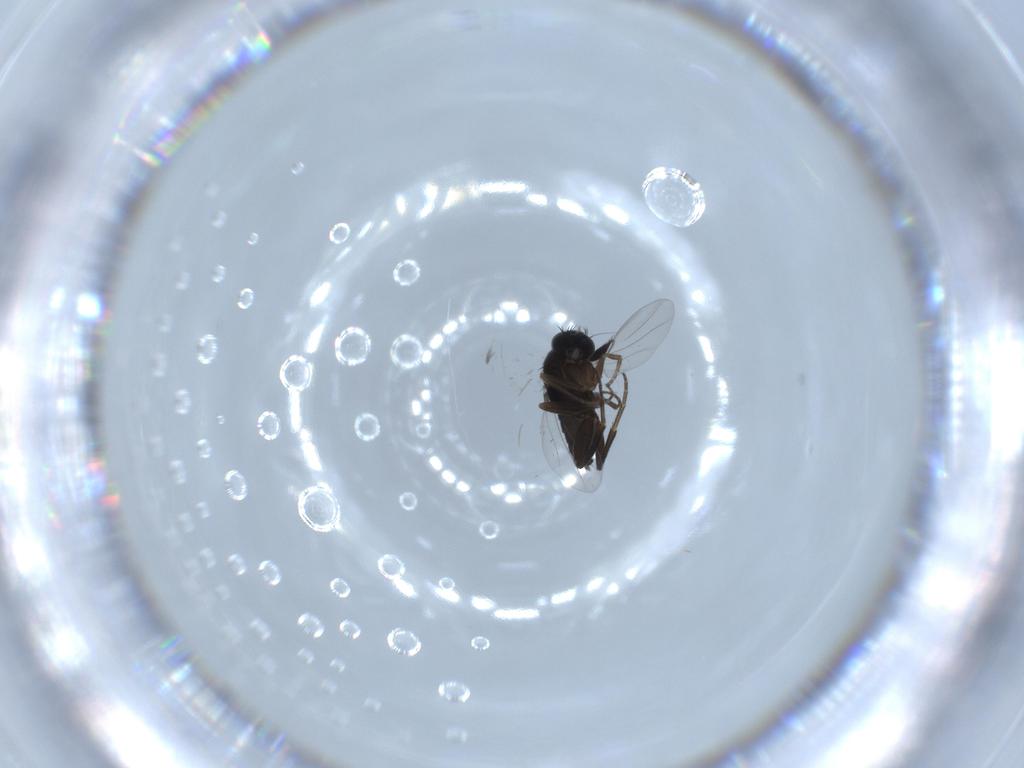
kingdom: Animalia
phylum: Arthropoda
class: Insecta
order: Diptera
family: Phoridae
